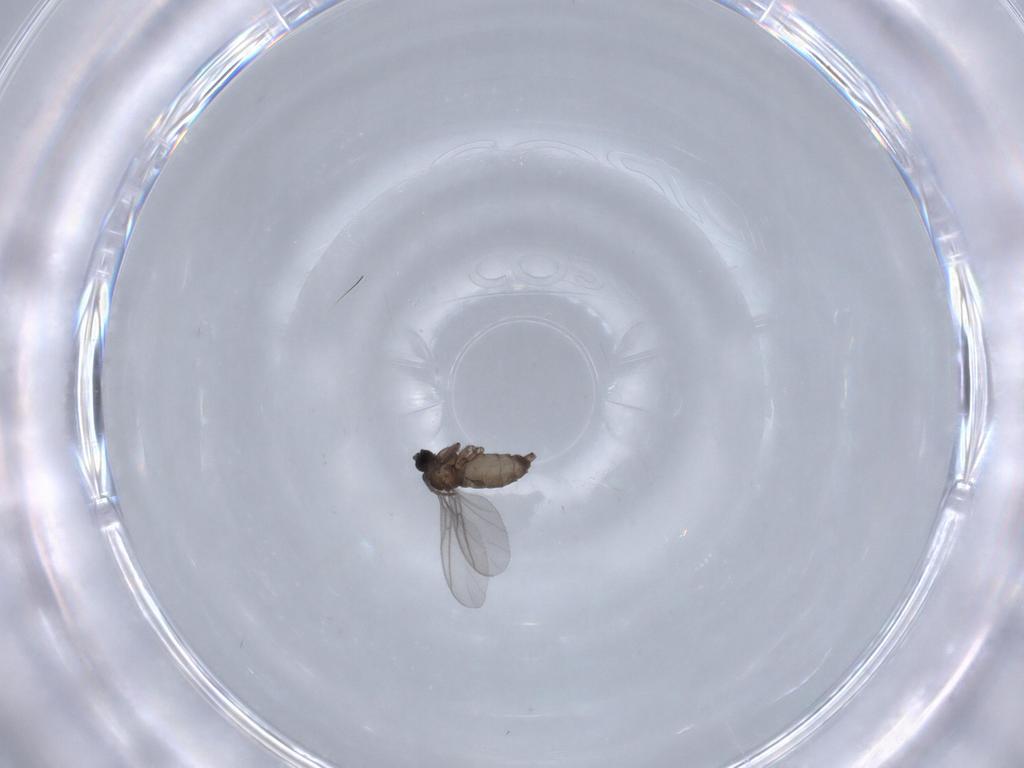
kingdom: Animalia
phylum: Arthropoda
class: Insecta
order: Diptera
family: Sciaridae
